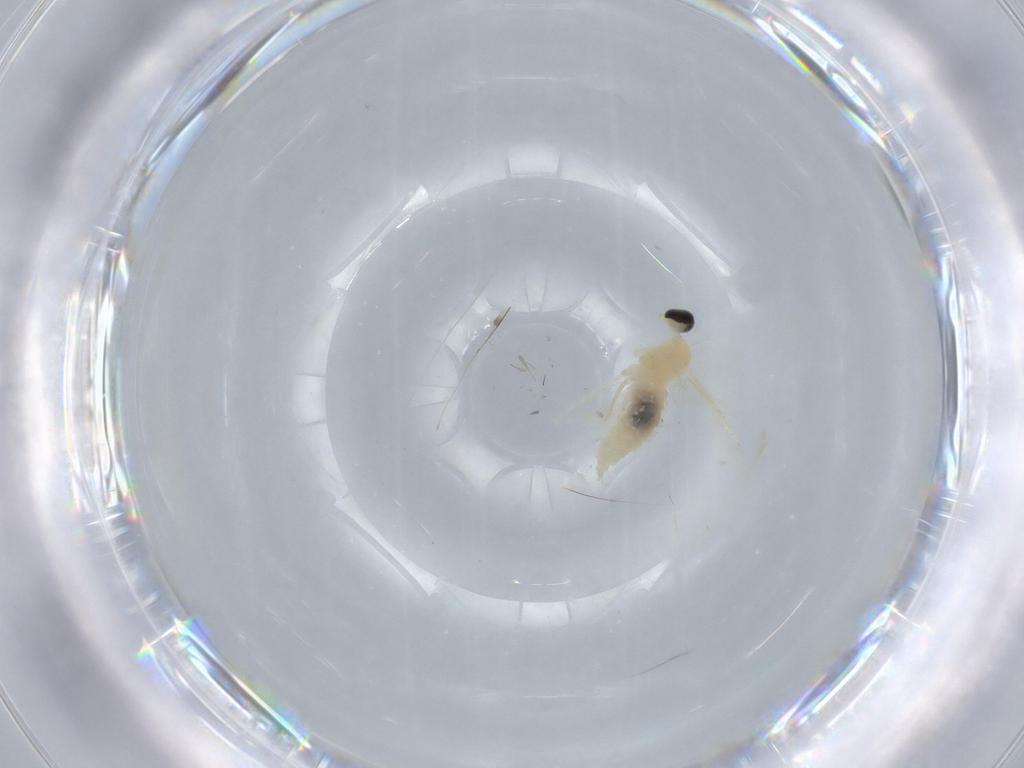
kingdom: Animalia
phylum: Arthropoda
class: Insecta
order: Diptera
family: Cecidomyiidae
